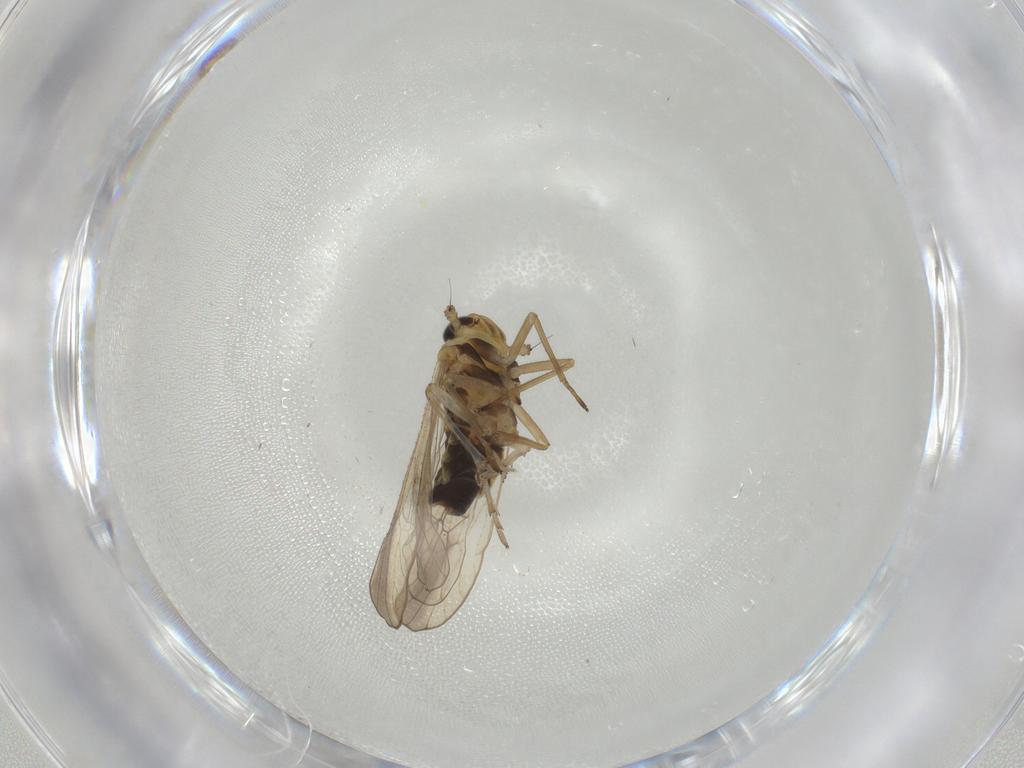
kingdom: Animalia
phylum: Arthropoda
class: Insecta
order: Hemiptera
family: Delphacidae
